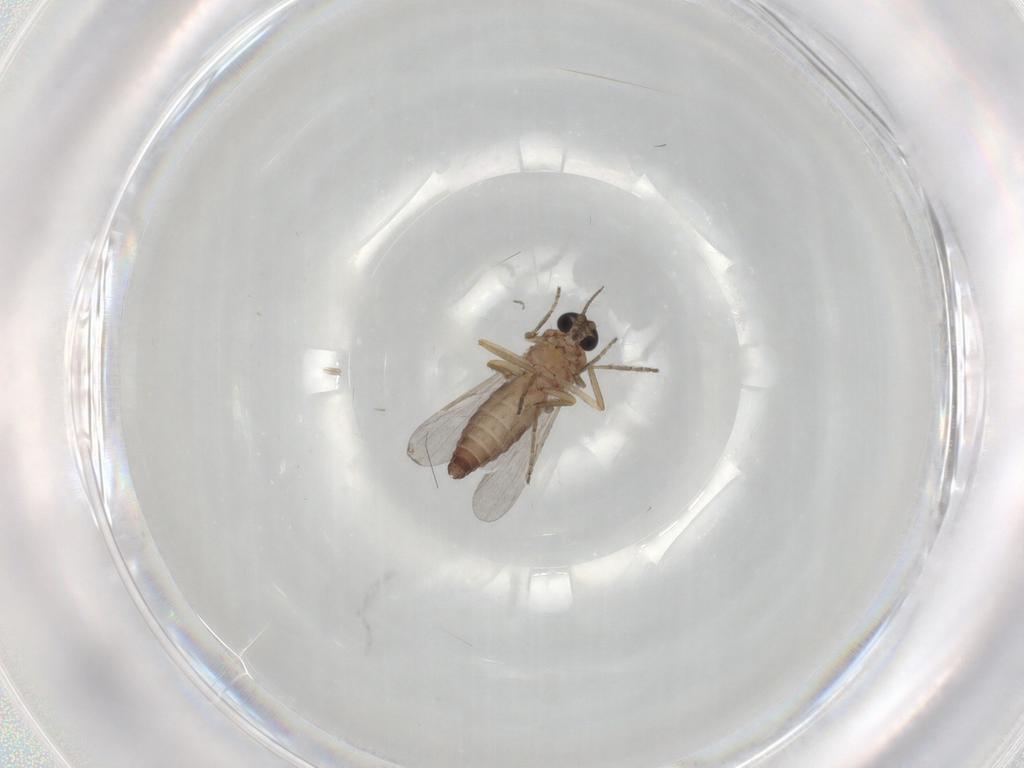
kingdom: Animalia
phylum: Arthropoda
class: Insecta
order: Diptera
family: Ceratopogonidae
